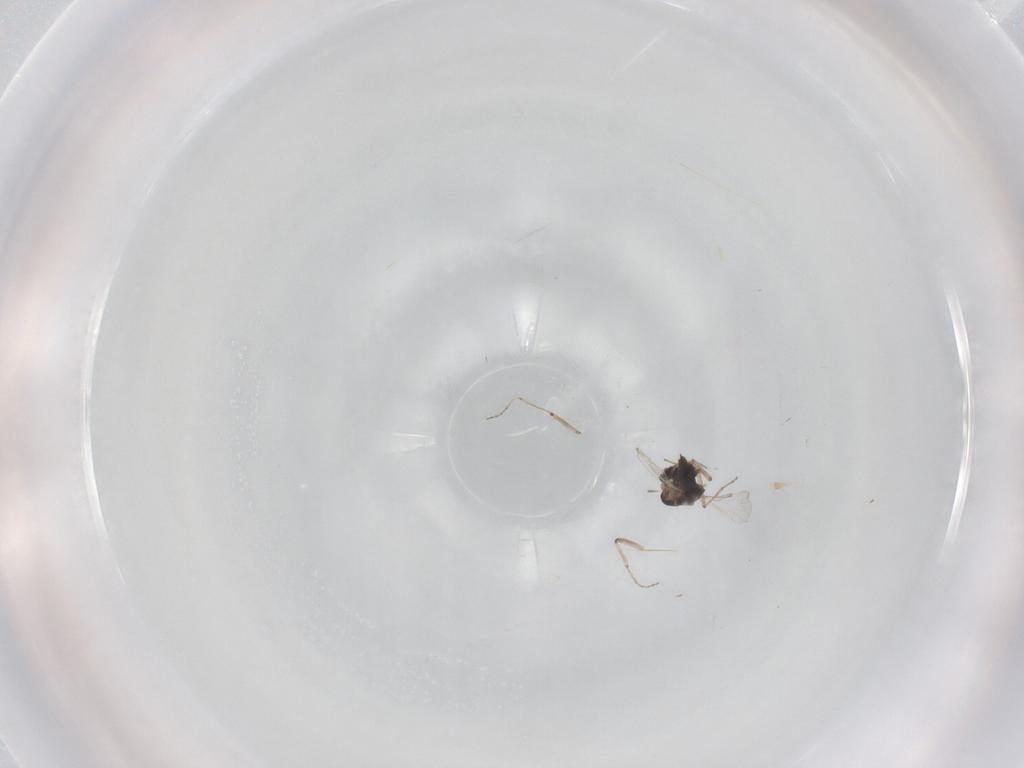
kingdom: Animalia
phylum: Arthropoda
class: Insecta
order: Diptera
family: Ceratopogonidae
